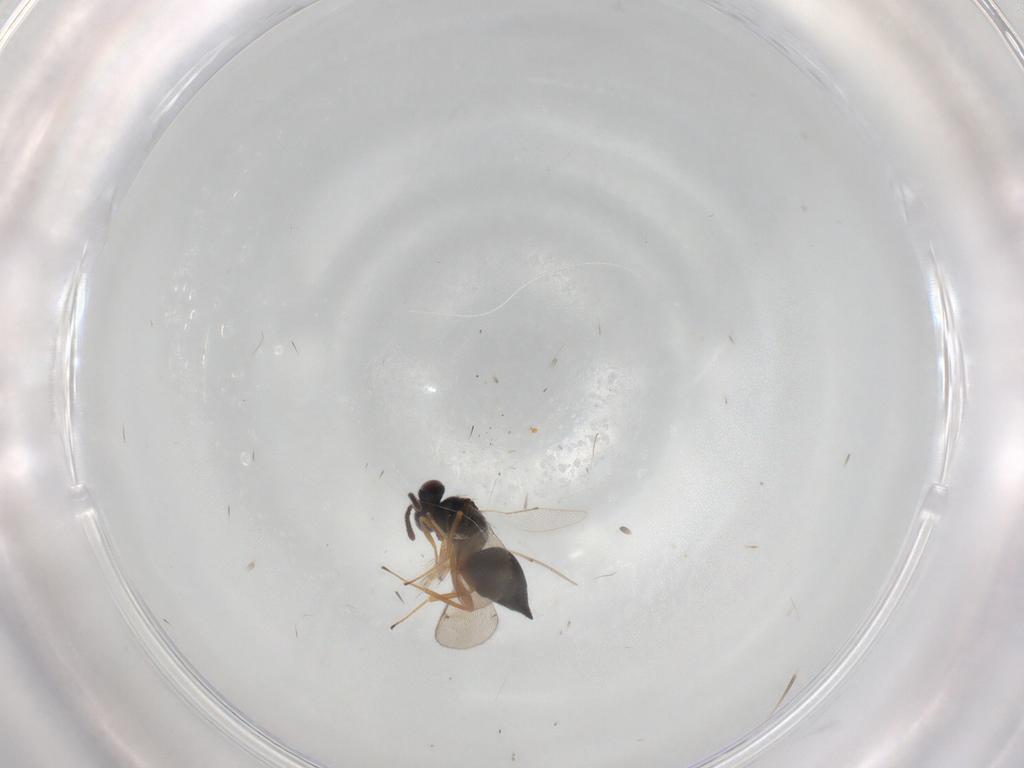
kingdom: Animalia
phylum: Arthropoda
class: Insecta
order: Hymenoptera
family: Tetracampidae
